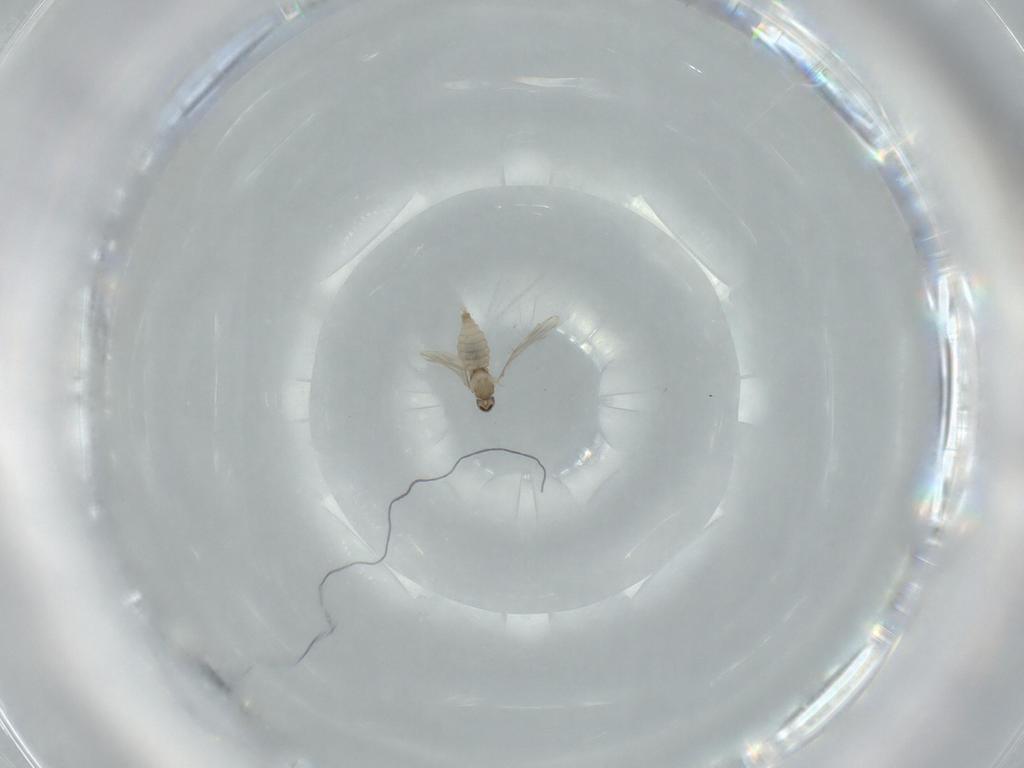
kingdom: Animalia
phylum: Arthropoda
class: Insecta
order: Diptera
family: Cecidomyiidae
